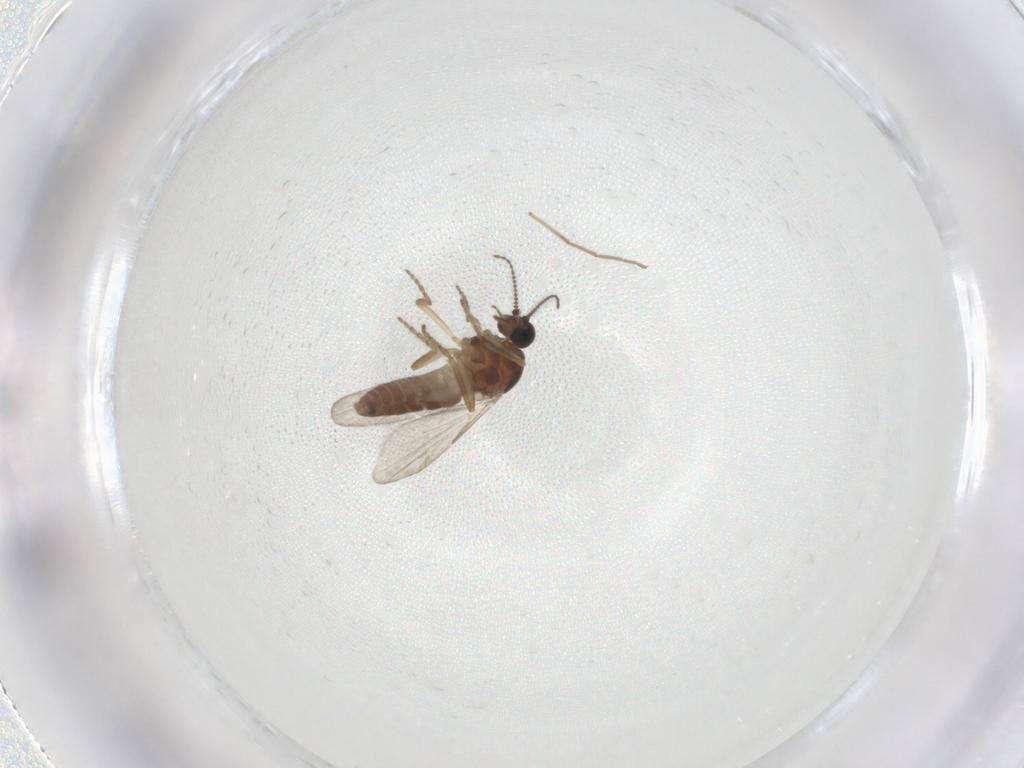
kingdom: Animalia
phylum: Arthropoda
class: Insecta
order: Diptera
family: Ceratopogonidae
